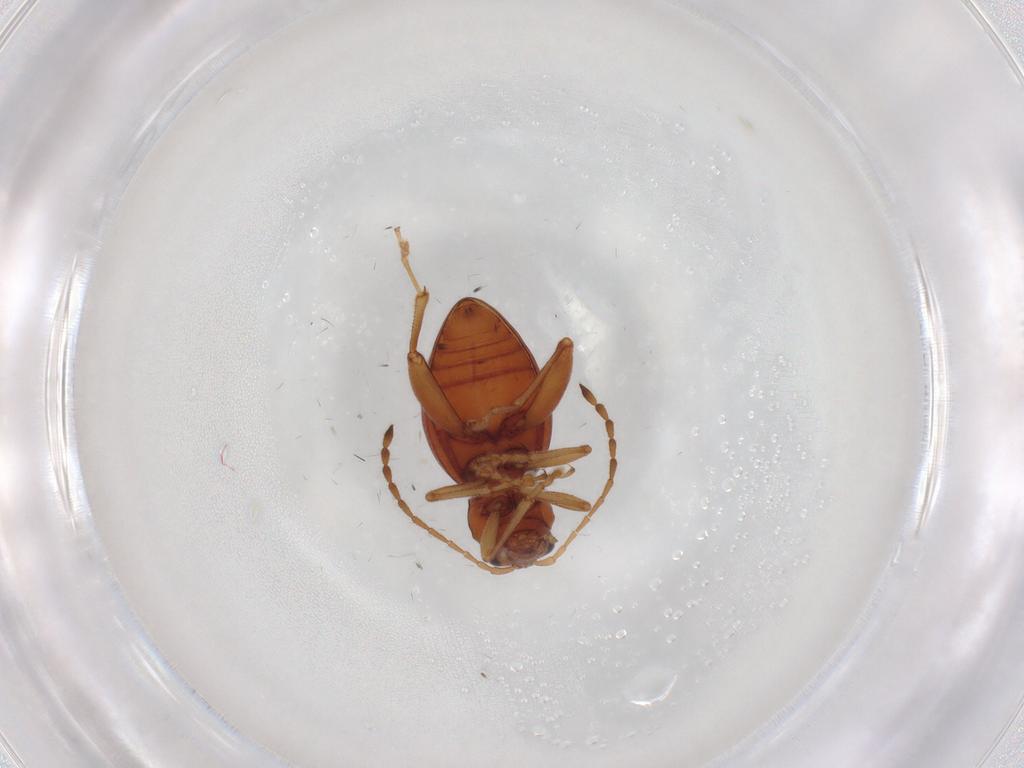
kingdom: Animalia
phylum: Arthropoda
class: Insecta
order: Coleoptera
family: Chrysomelidae
